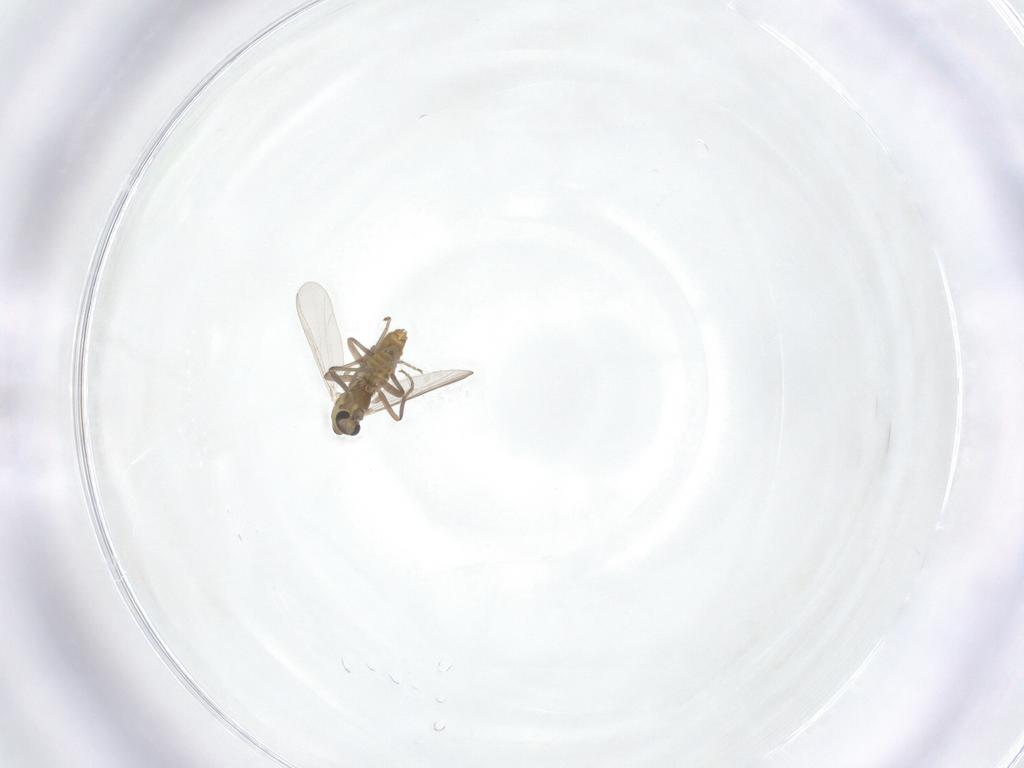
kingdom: Animalia
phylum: Arthropoda
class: Insecta
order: Diptera
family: Chironomidae
